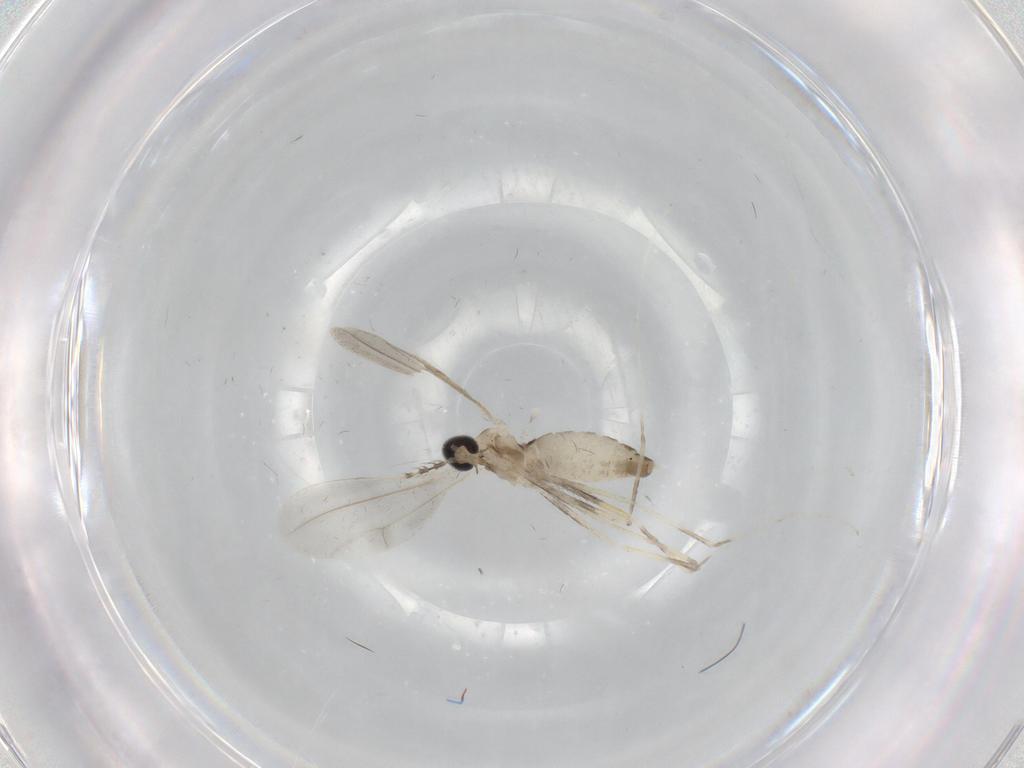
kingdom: Animalia
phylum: Arthropoda
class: Insecta
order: Diptera
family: Cecidomyiidae
